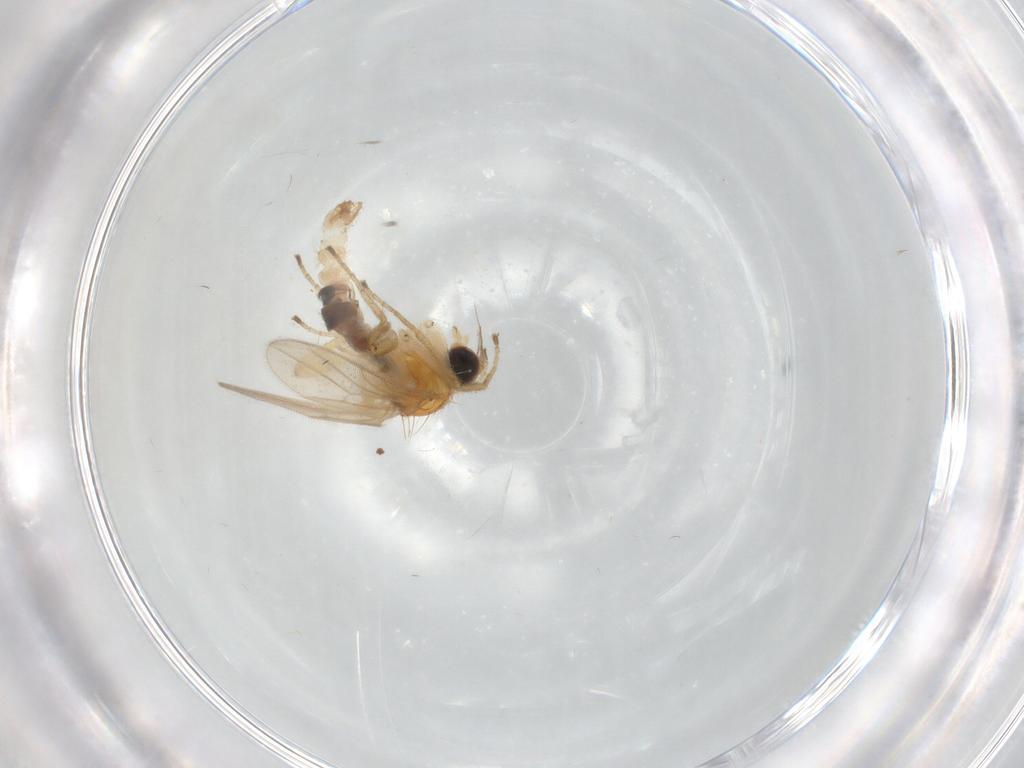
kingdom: Animalia
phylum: Arthropoda
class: Insecta
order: Diptera
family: Hybotidae
